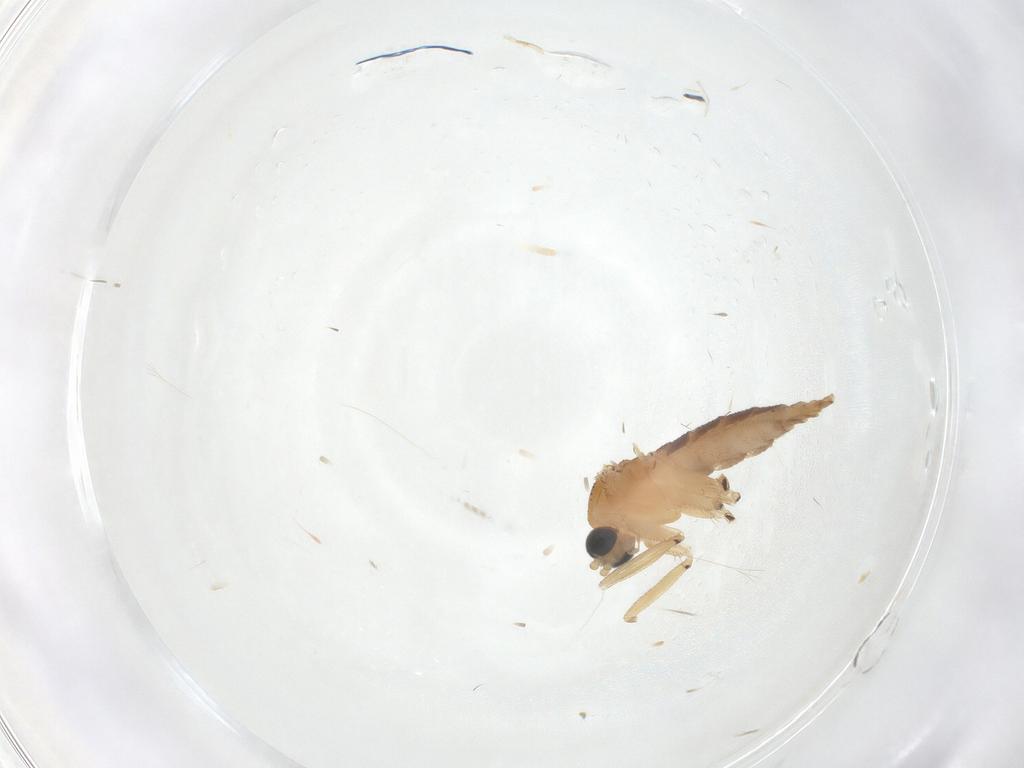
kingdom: Animalia
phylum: Arthropoda
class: Insecta
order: Diptera
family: Sciaridae
